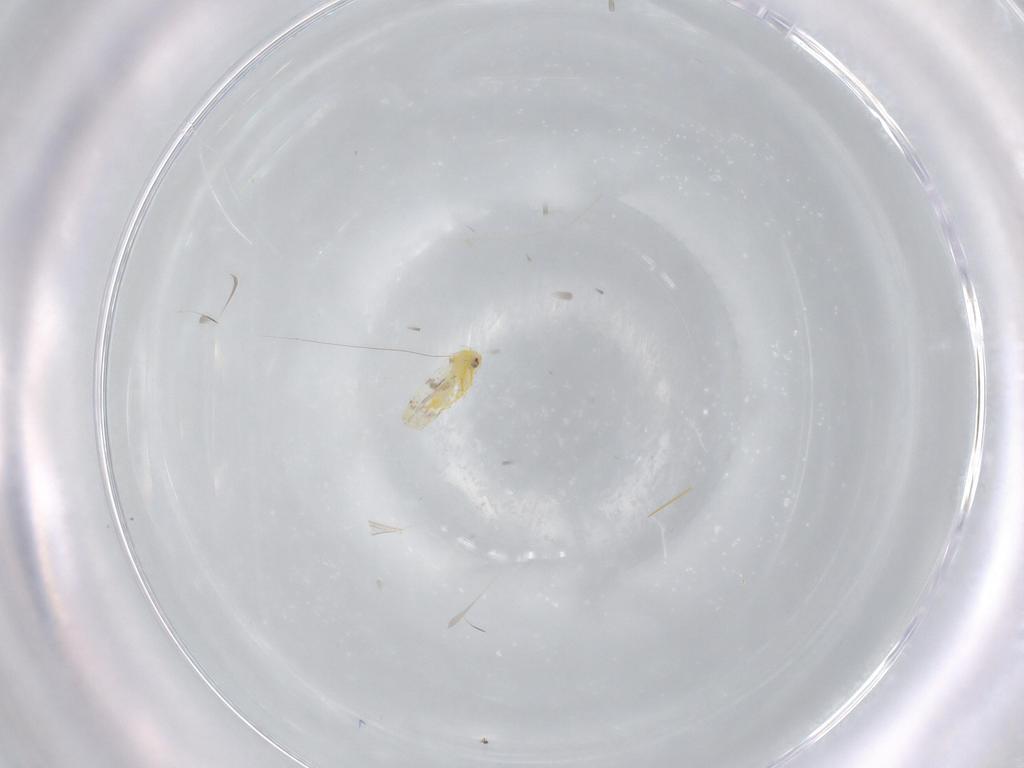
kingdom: Animalia
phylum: Arthropoda
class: Insecta
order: Hemiptera
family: Aleyrodidae
